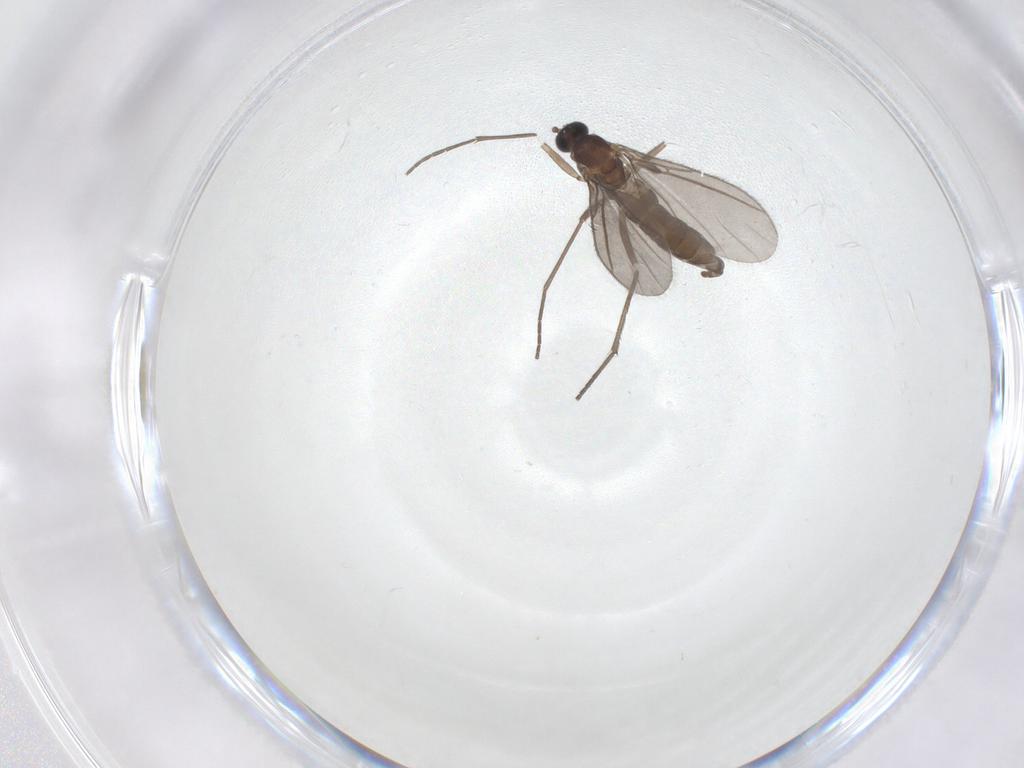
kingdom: Animalia
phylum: Arthropoda
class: Insecta
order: Diptera
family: Sciaridae
